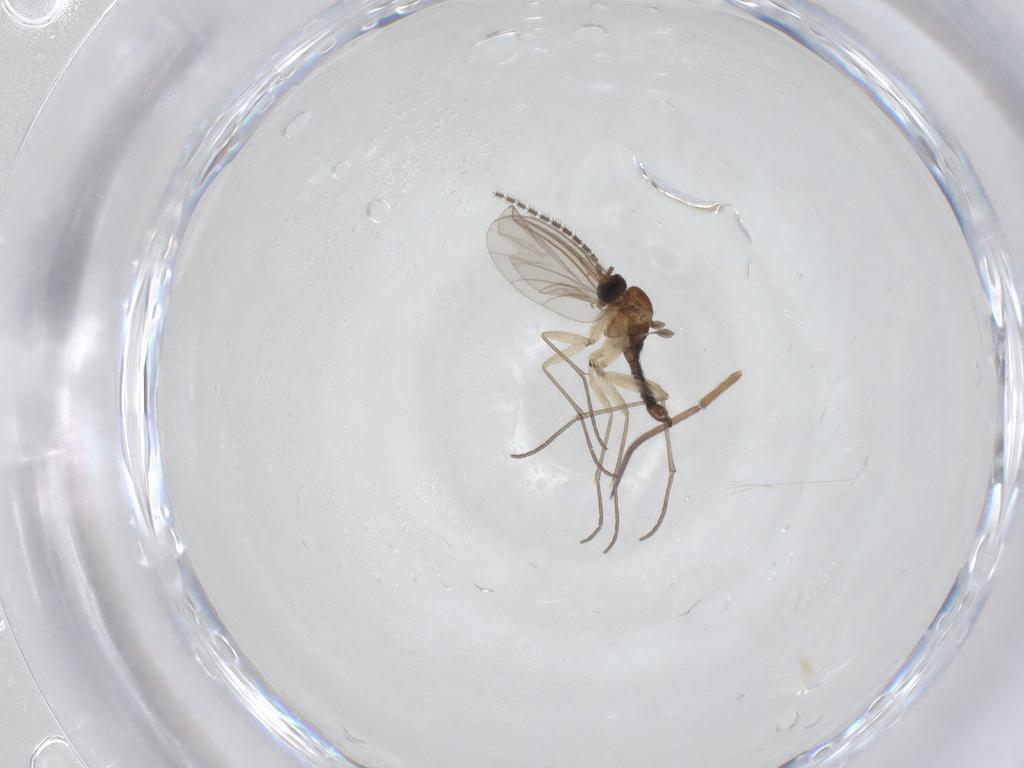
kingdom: Animalia
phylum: Arthropoda
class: Insecta
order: Diptera
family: Sciaridae
